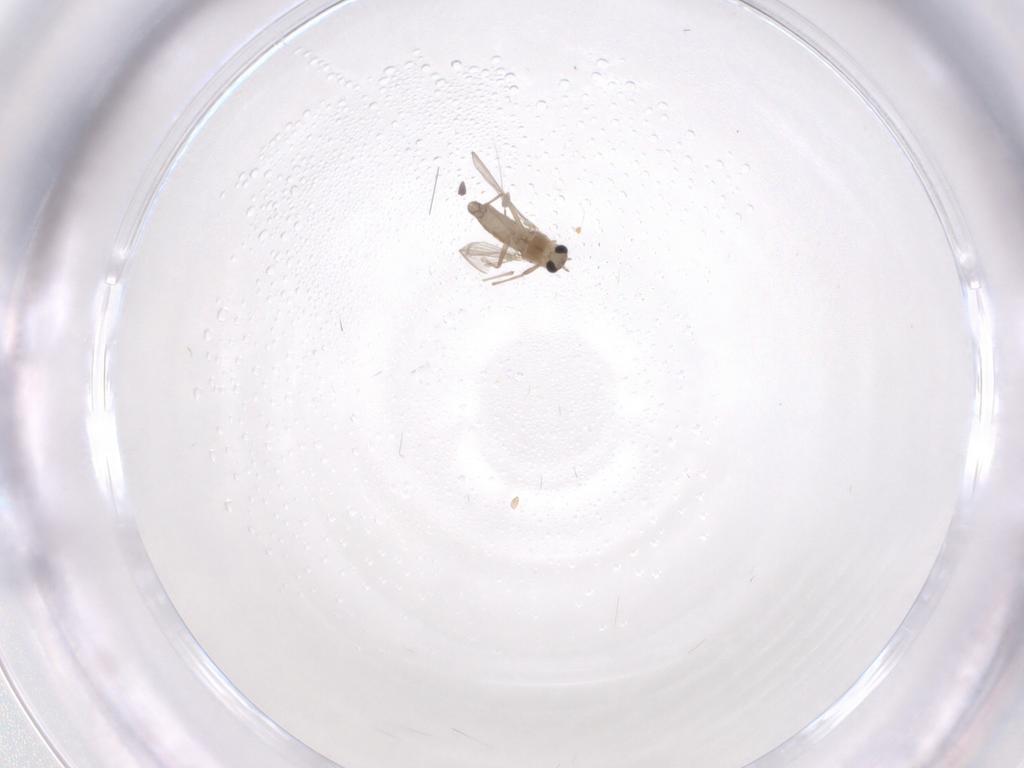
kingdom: Animalia
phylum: Arthropoda
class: Insecta
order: Diptera
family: Chironomidae
